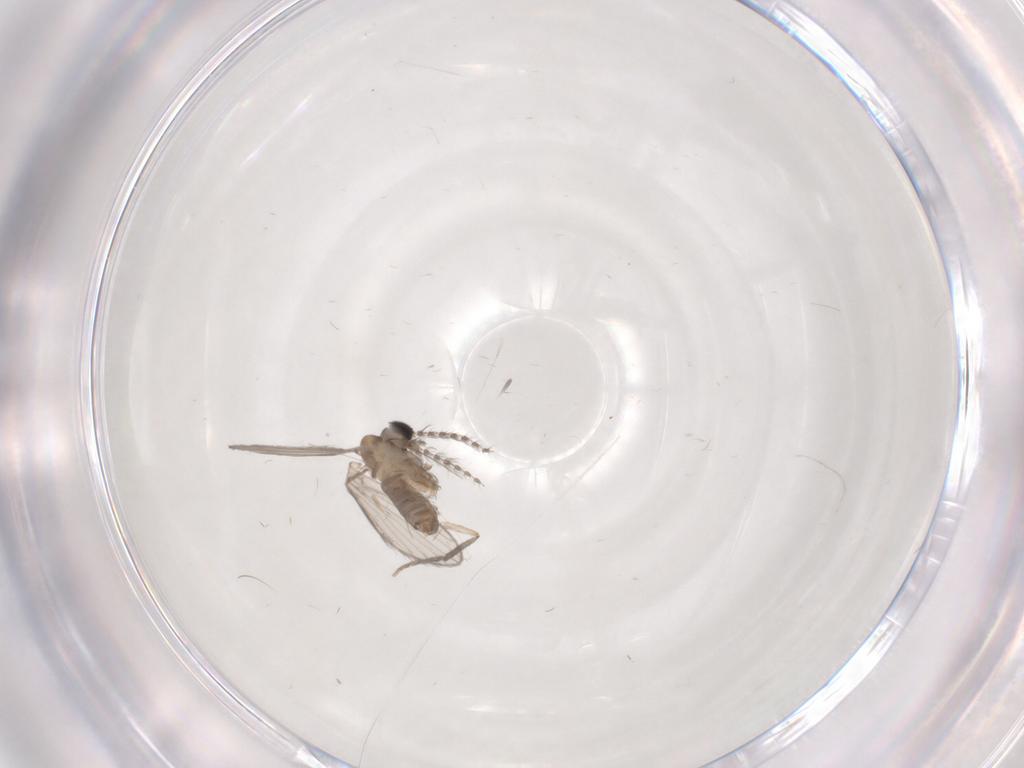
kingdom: Animalia
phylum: Arthropoda
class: Insecta
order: Diptera
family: Psychodidae
